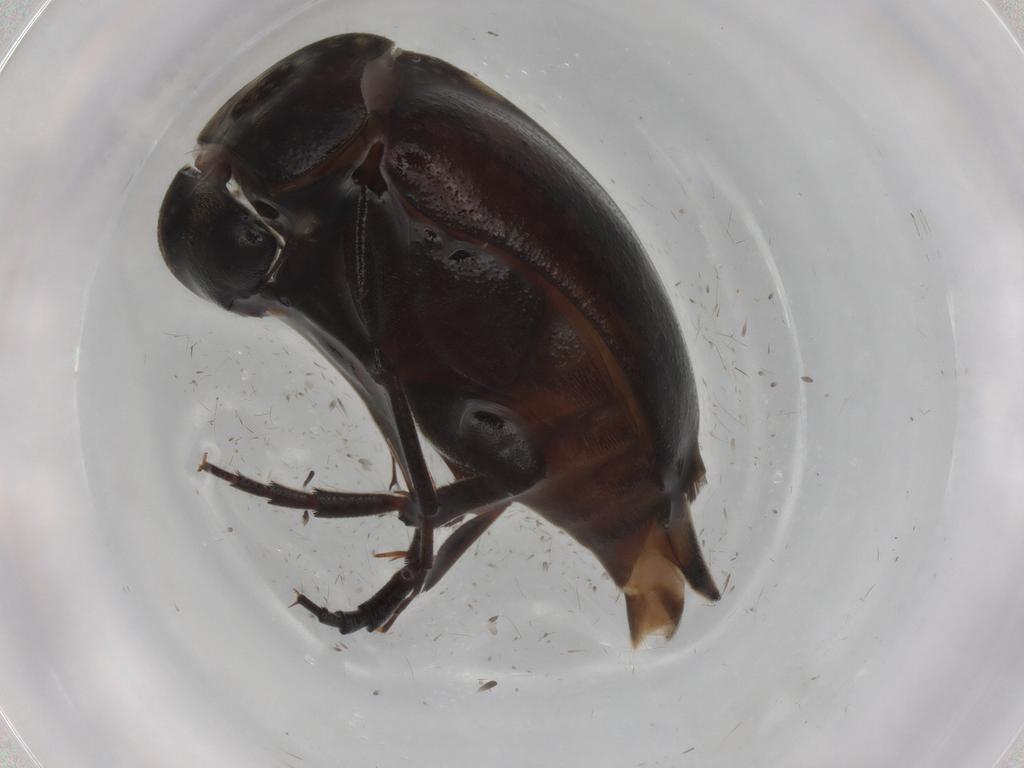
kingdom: Animalia
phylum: Arthropoda
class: Insecta
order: Coleoptera
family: Lampyridae
